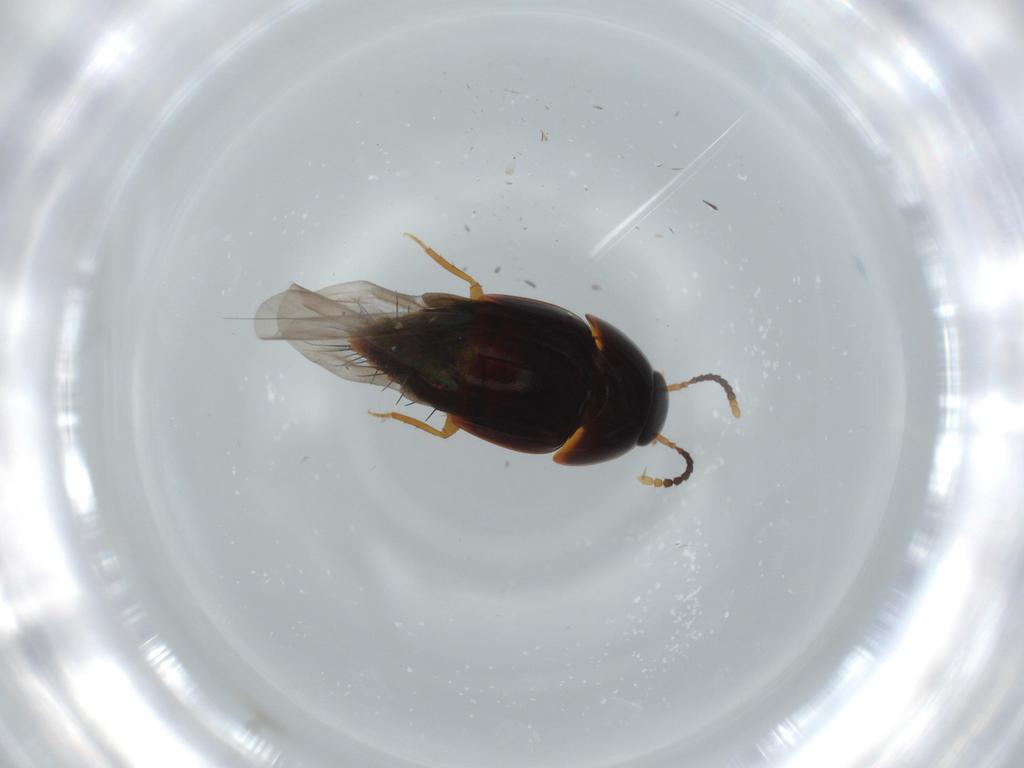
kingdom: Animalia
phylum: Arthropoda
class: Insecta
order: Coleoptera
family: Staphylinidae
